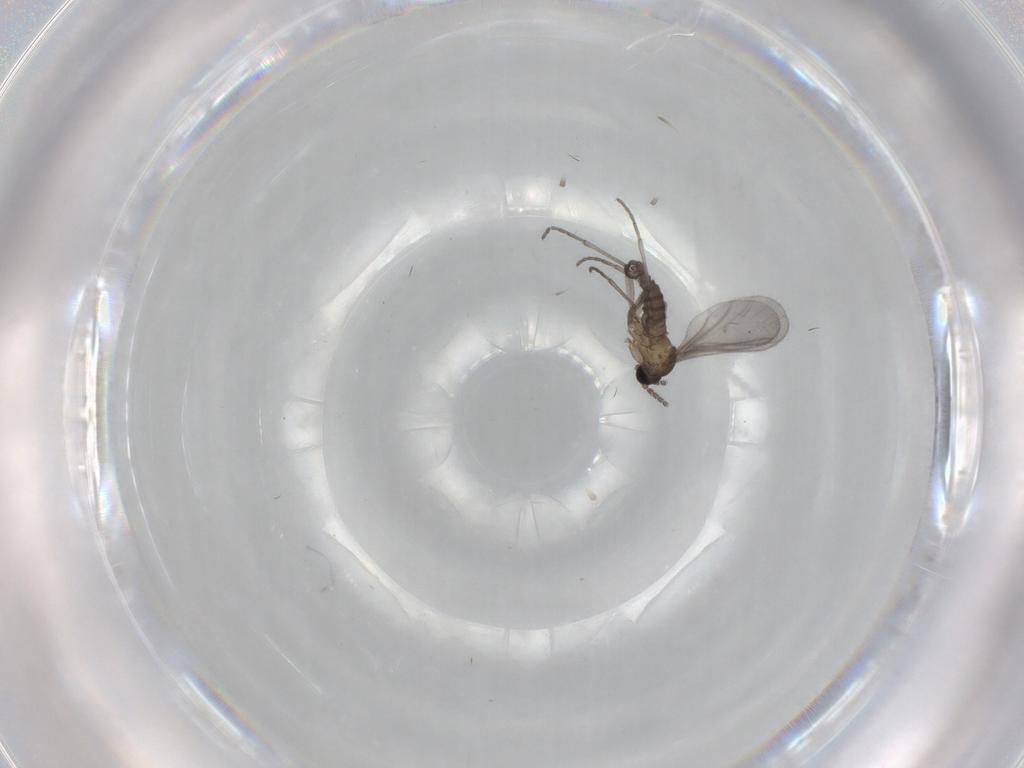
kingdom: Animalia
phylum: Arthropoda
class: Insecta
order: Diptera
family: Sciaridae
